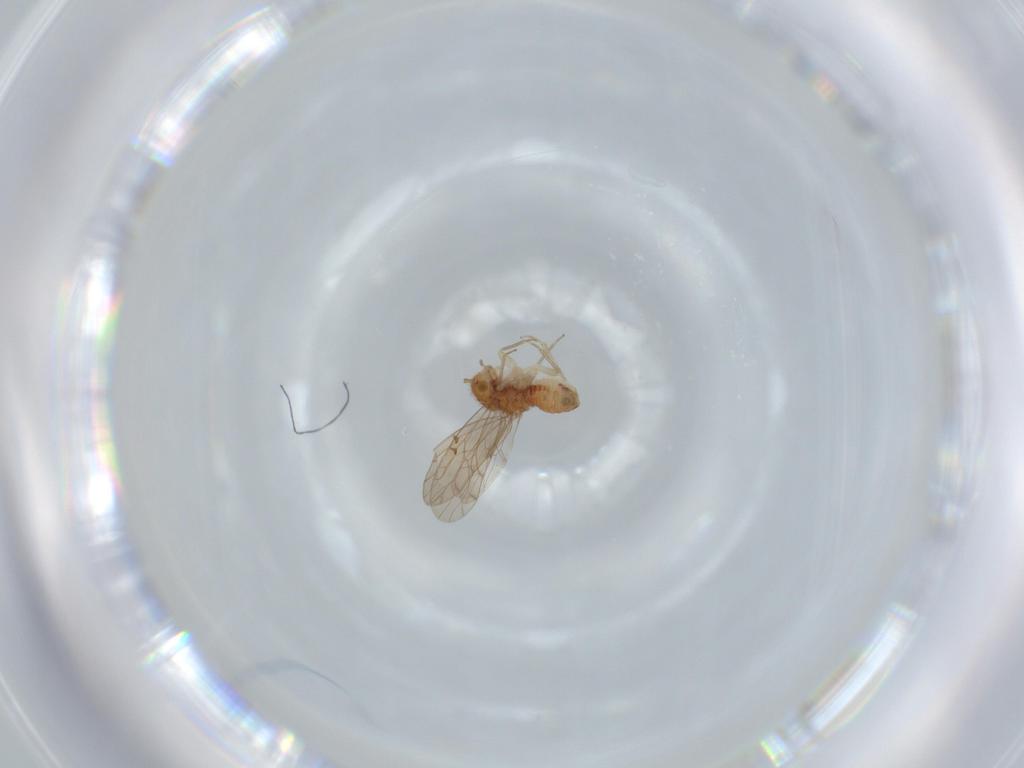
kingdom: Animalia
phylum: Arthropoda
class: Insecta
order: Psocodea
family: Ectopsocidae
